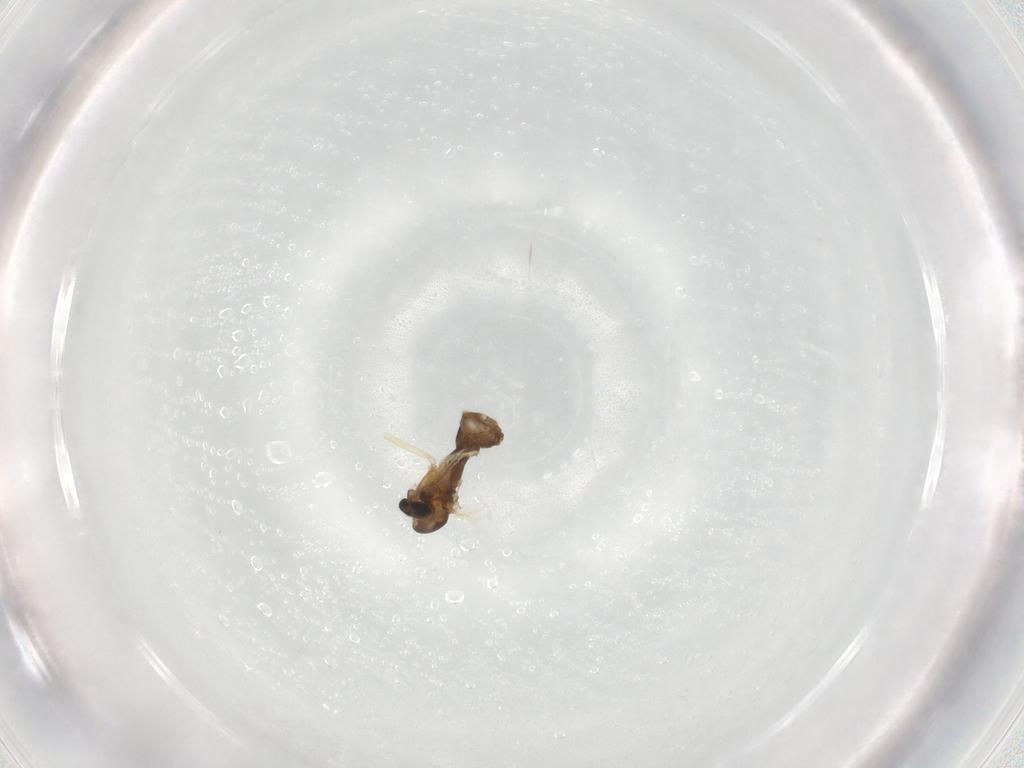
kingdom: Animalia
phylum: Arthropoda
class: Insecta
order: Diptera
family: Chironomidae
